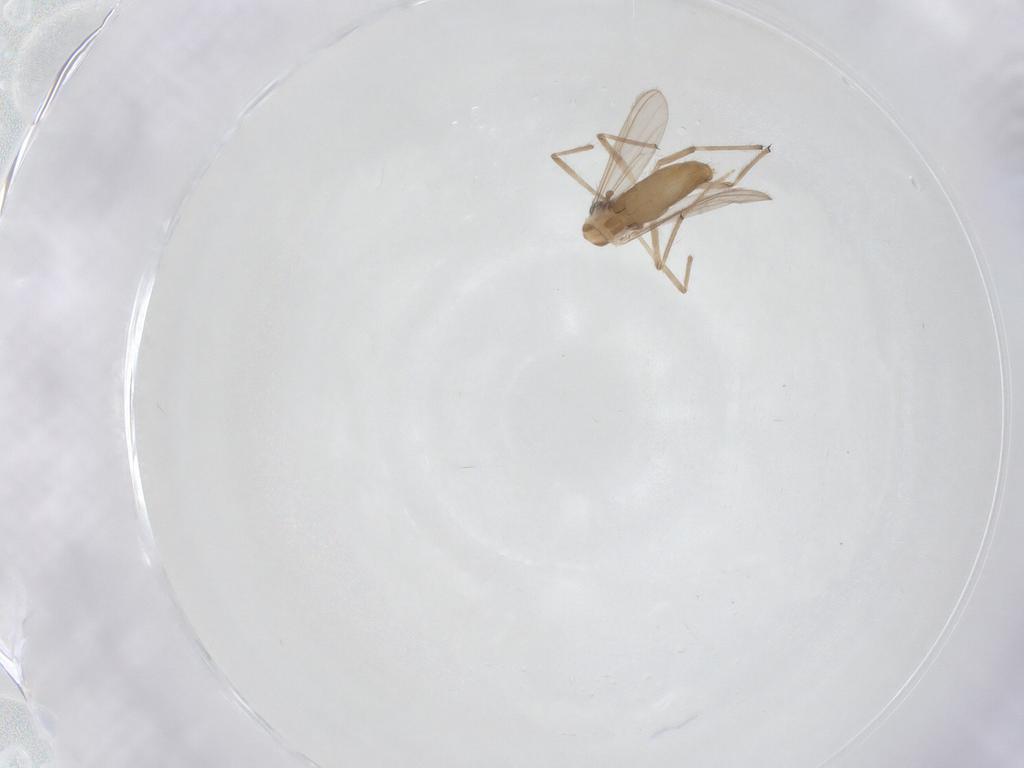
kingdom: Animalia
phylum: Arthropoda
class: Insecta
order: Diptera
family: Chironomidae
